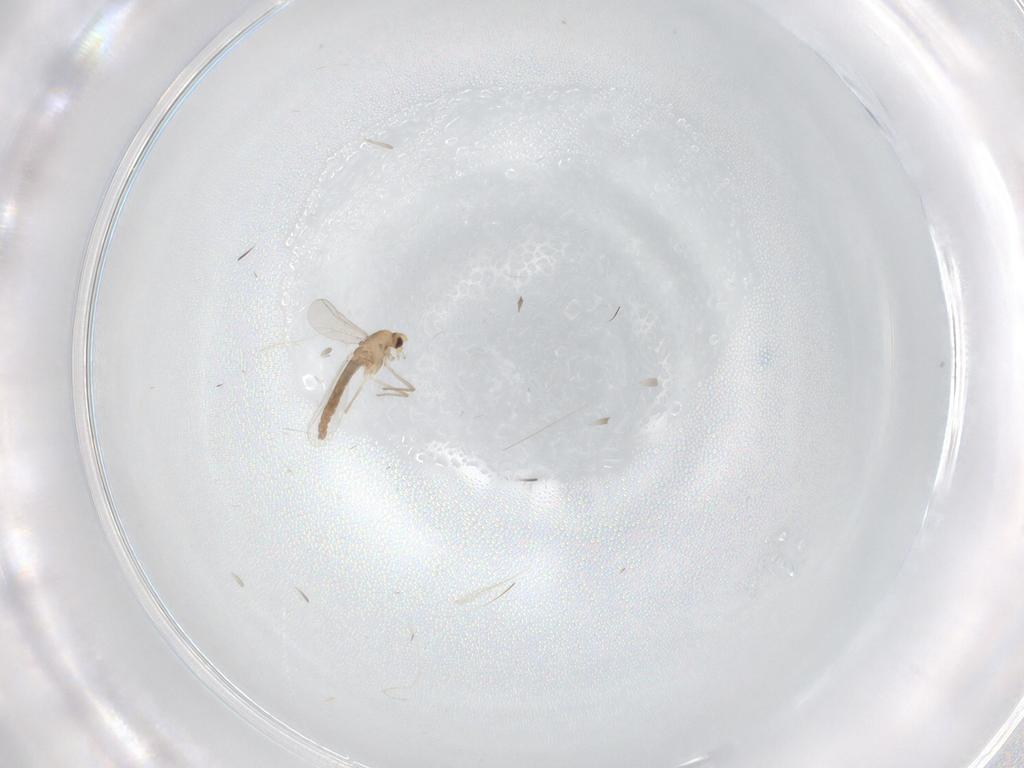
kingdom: Animalia
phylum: Arthropoda
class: Insecta
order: Diptera
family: Chironomidae
